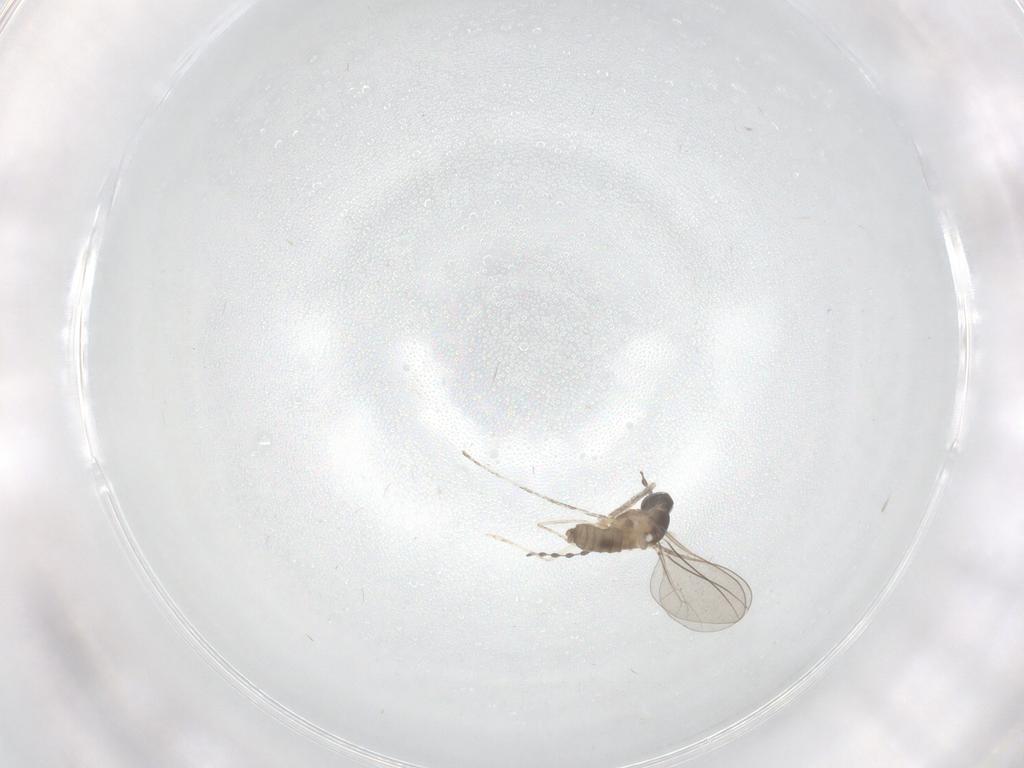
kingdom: Animalia
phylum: Arthropoda
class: Insecta
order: Diptera
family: Cecidomyiidae
